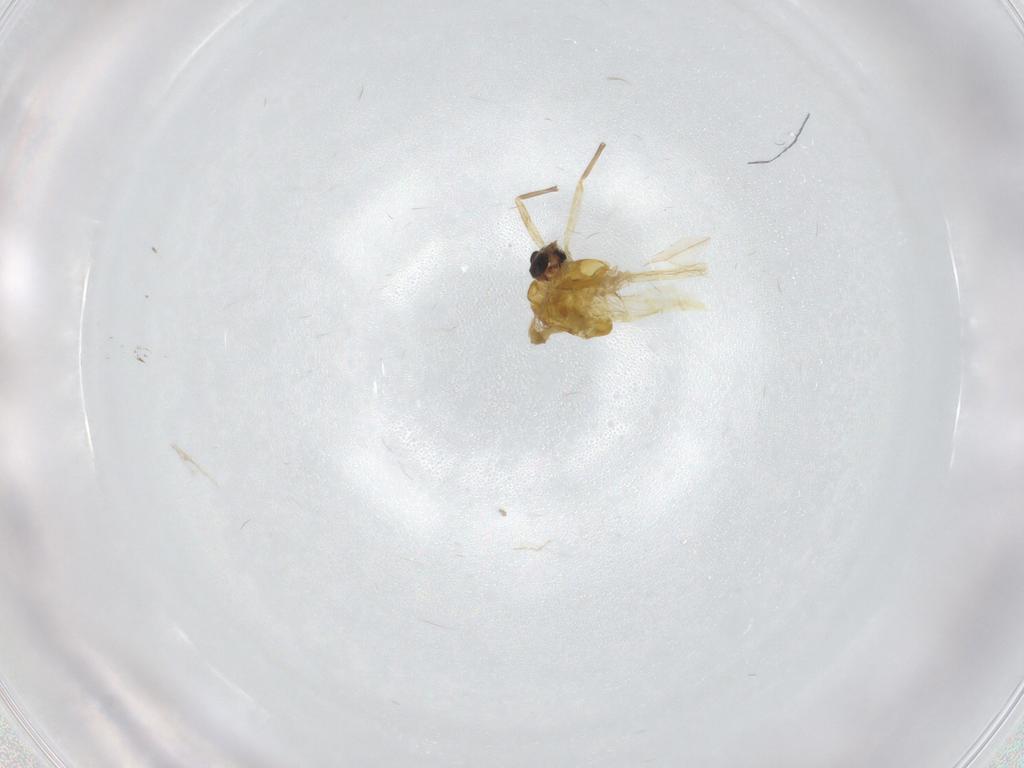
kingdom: Animalia
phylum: Arthropoda
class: Insecta
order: Diptera
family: Chironomidae
